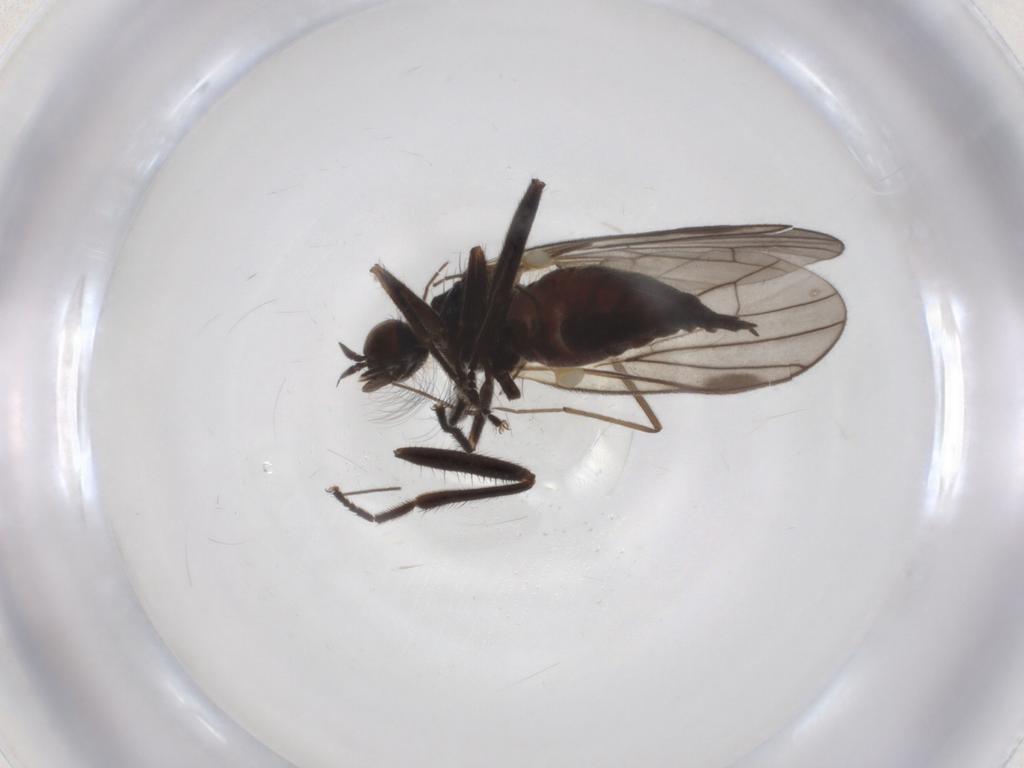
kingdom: Animalia
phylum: Arthropoda
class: Insecta
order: Diptera
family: Hybotidae
